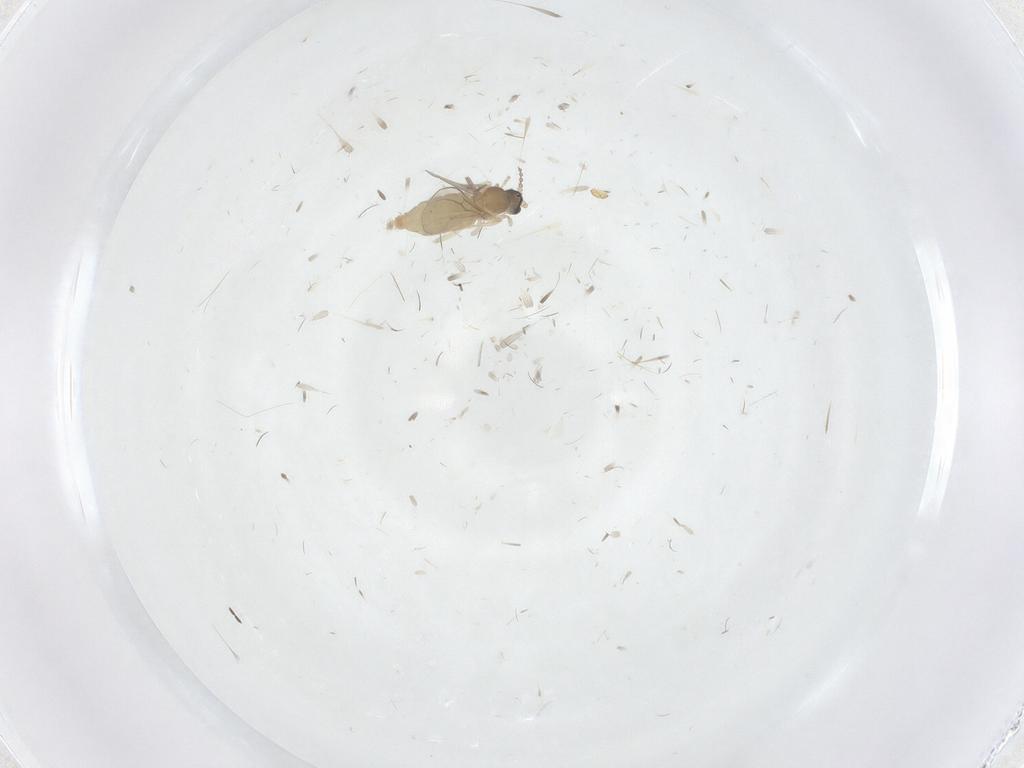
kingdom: Animalia
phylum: Arthropoda
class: Insecta
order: Diptera
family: Cecidomyiidae
